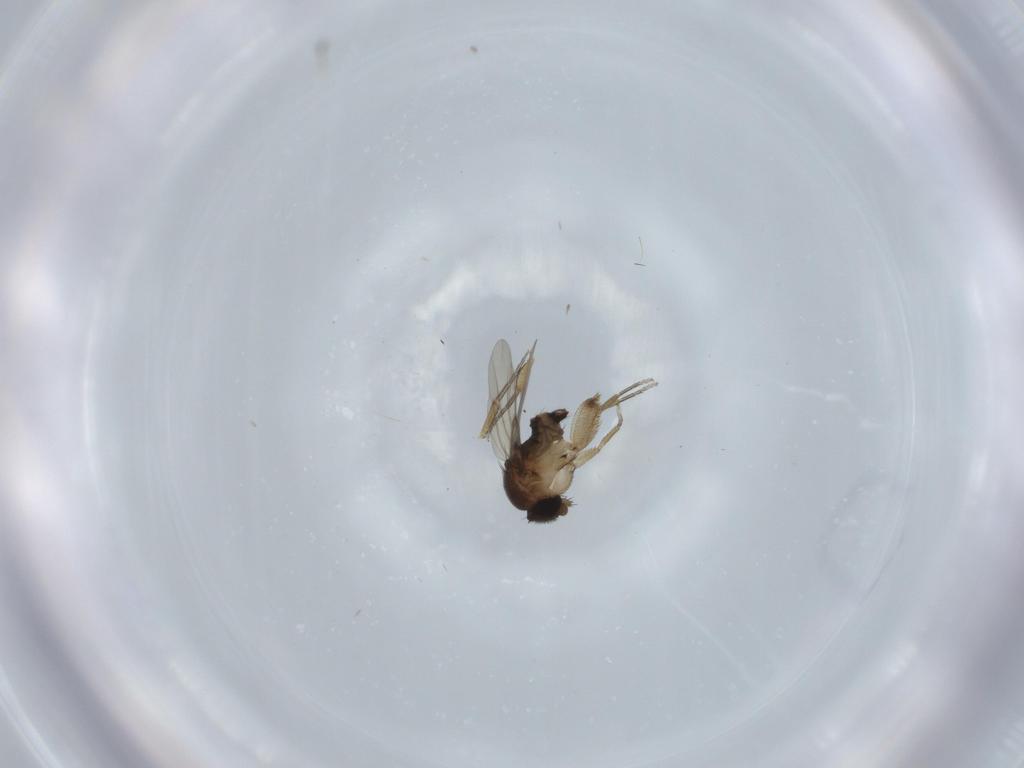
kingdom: Animalia
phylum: Arthropoda
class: Insecta
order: Diptera
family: Phoridae
